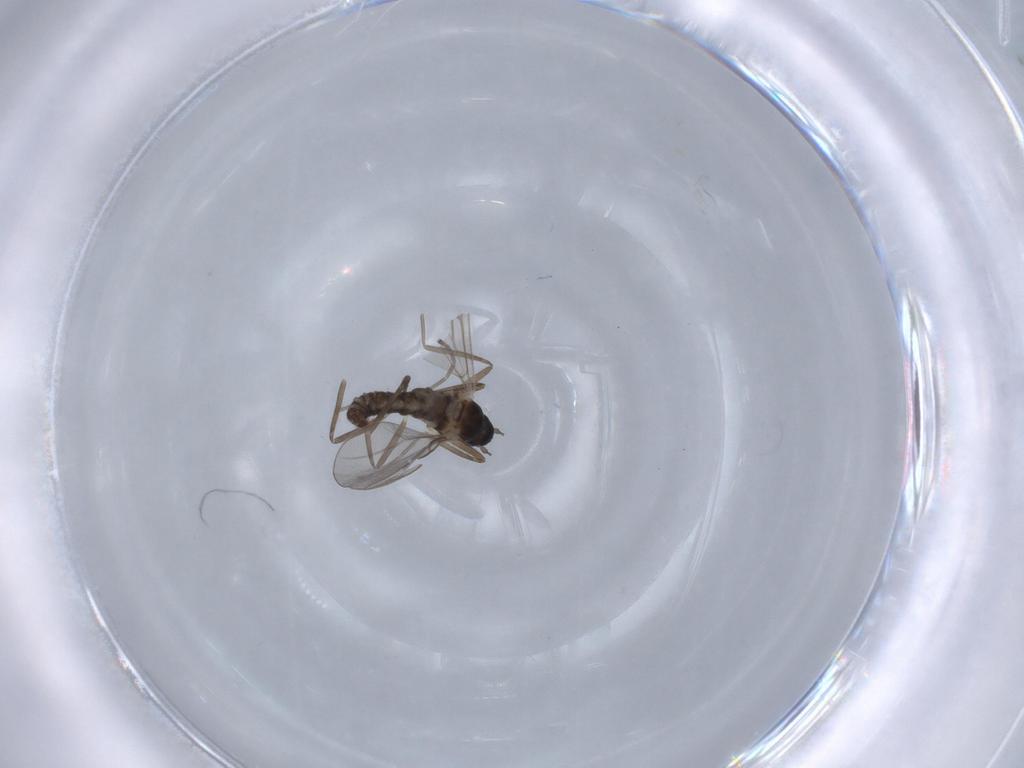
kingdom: Animalia
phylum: Arthropoda
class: Insecta
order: Diptera
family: Cecidomyiidae
